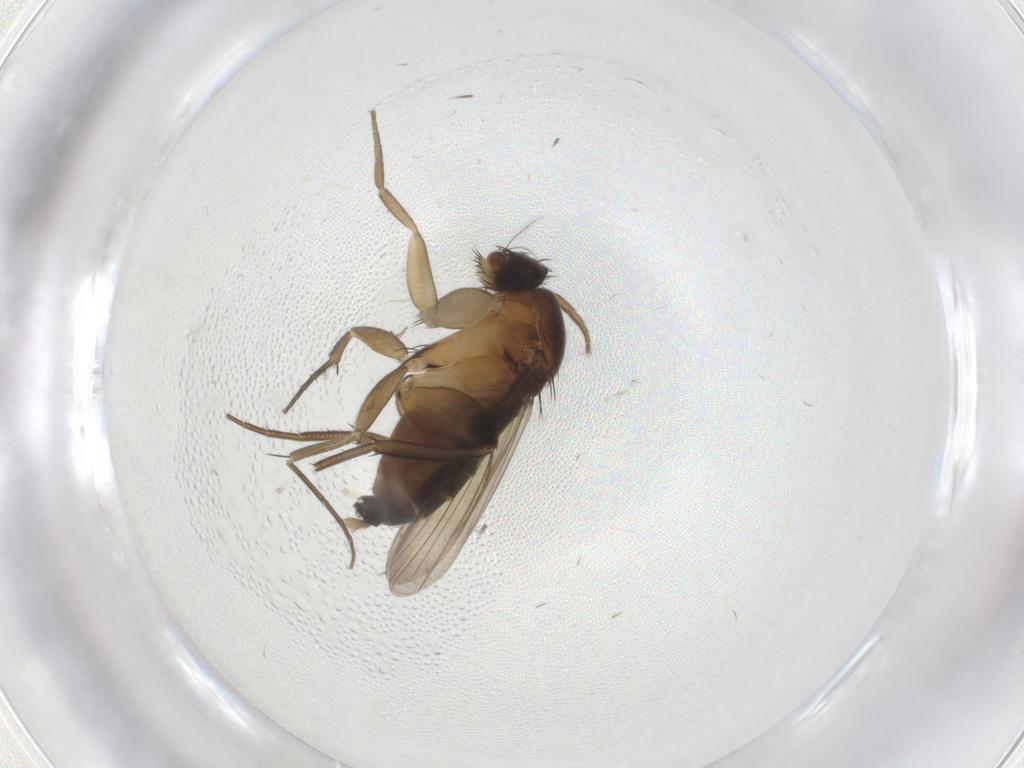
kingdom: Animalia
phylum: Arthropoda
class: Insecta
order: Diptera
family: Phoridae
